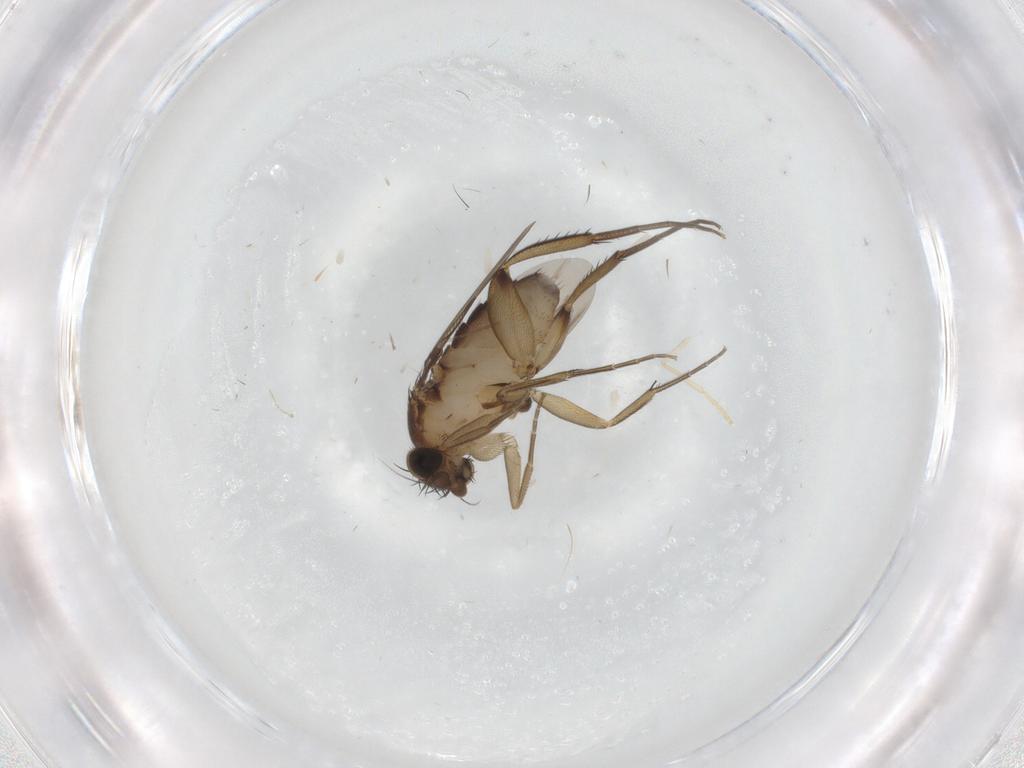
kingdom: Animalia
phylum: Arthropoda
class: Insecta
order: Diptera
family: Phoridae
